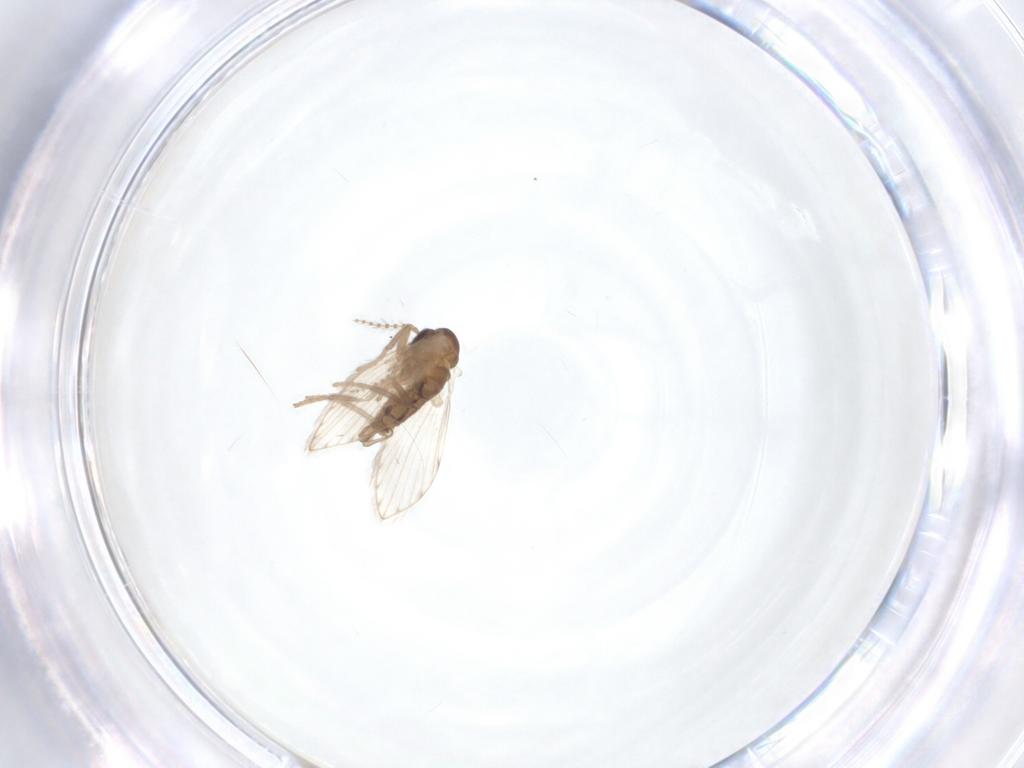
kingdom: Animalia
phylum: Arthropoda
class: Insecta
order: Diptera
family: Psychodidae
